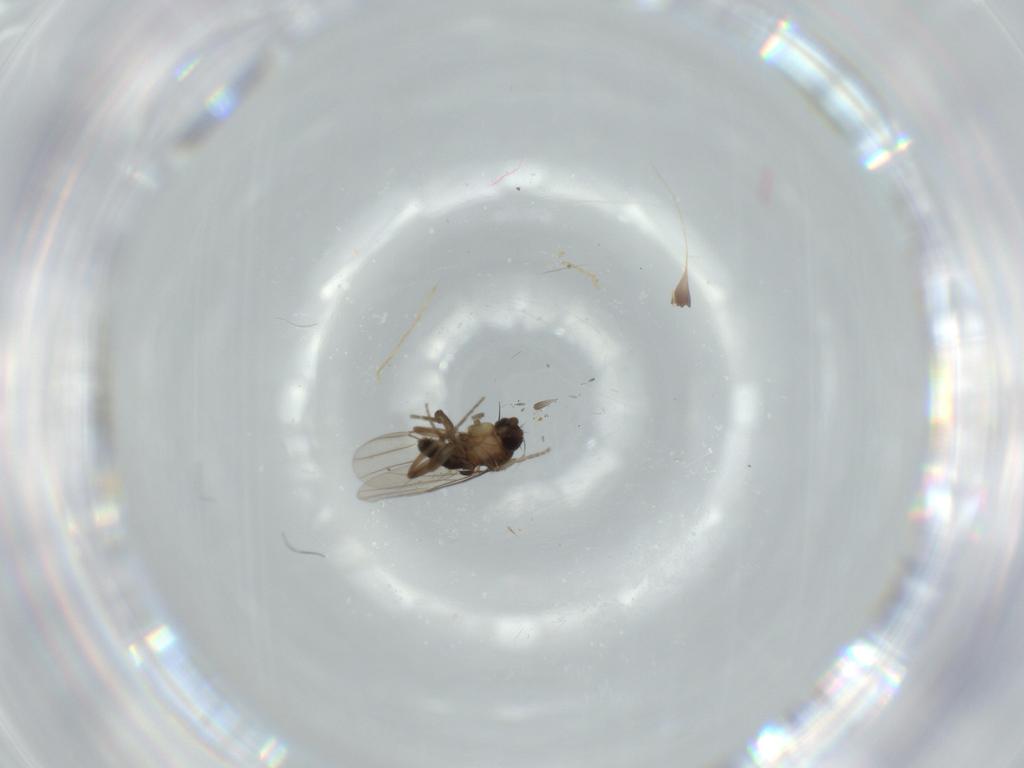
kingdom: Animalia
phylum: Arthropoda
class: Insecta
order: Diptera
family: Phoridae
